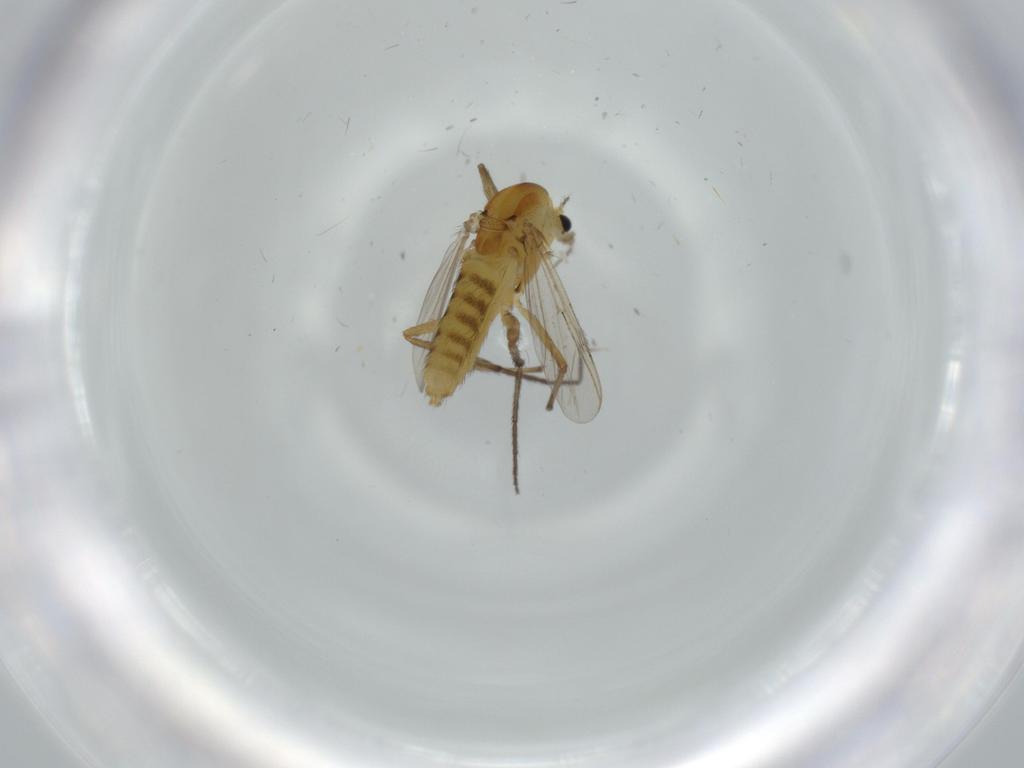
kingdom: Animalia
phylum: Arthropoda
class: Insecta
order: Diptera
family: Chironomidae
